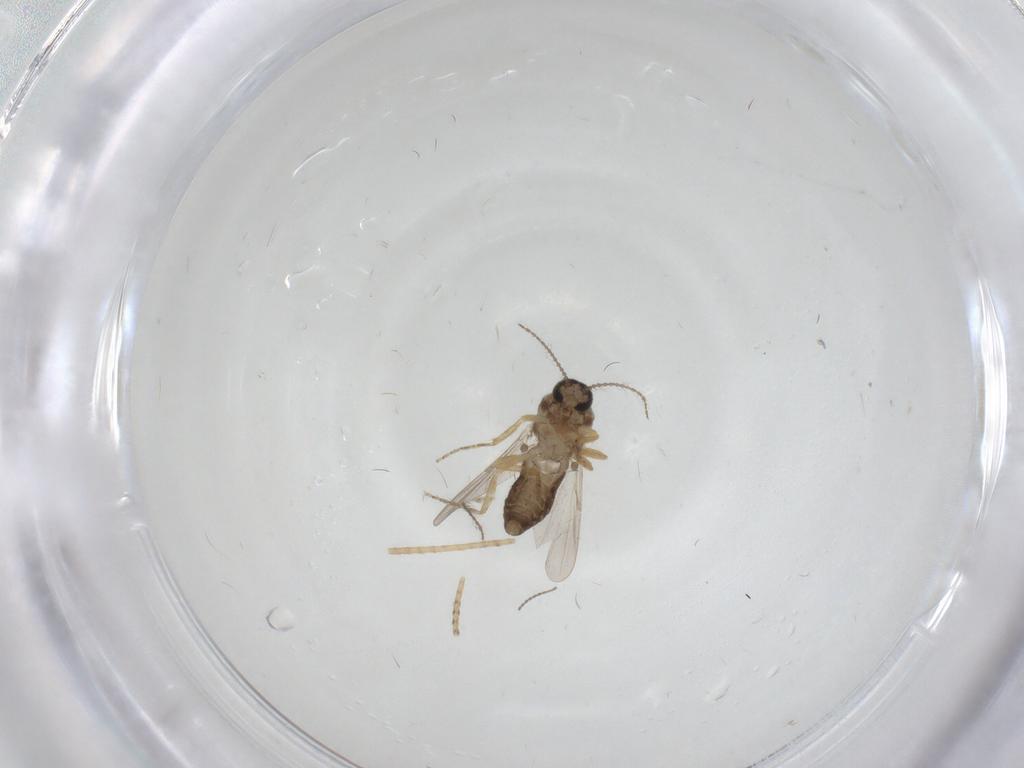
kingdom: Animalia
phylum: Arthropoda
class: Insecta
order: Diptera
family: Ceratopogonidae
